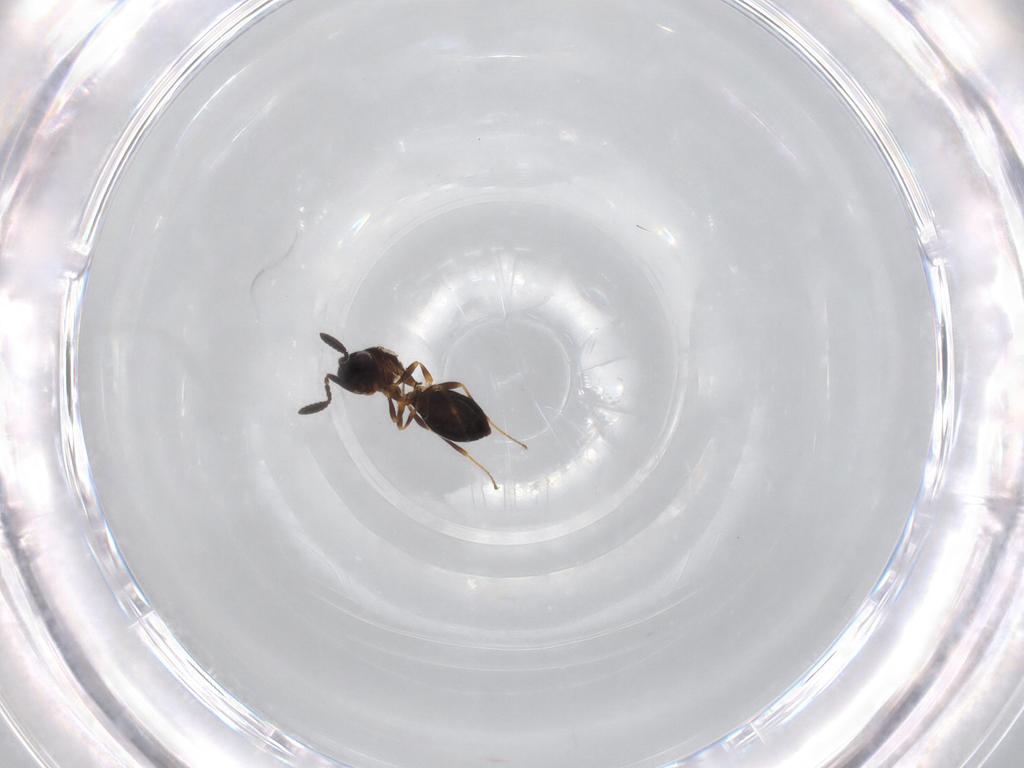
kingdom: Animalia
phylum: Arthropoda
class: Insecta
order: Hymenoptera
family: Scelionidae
